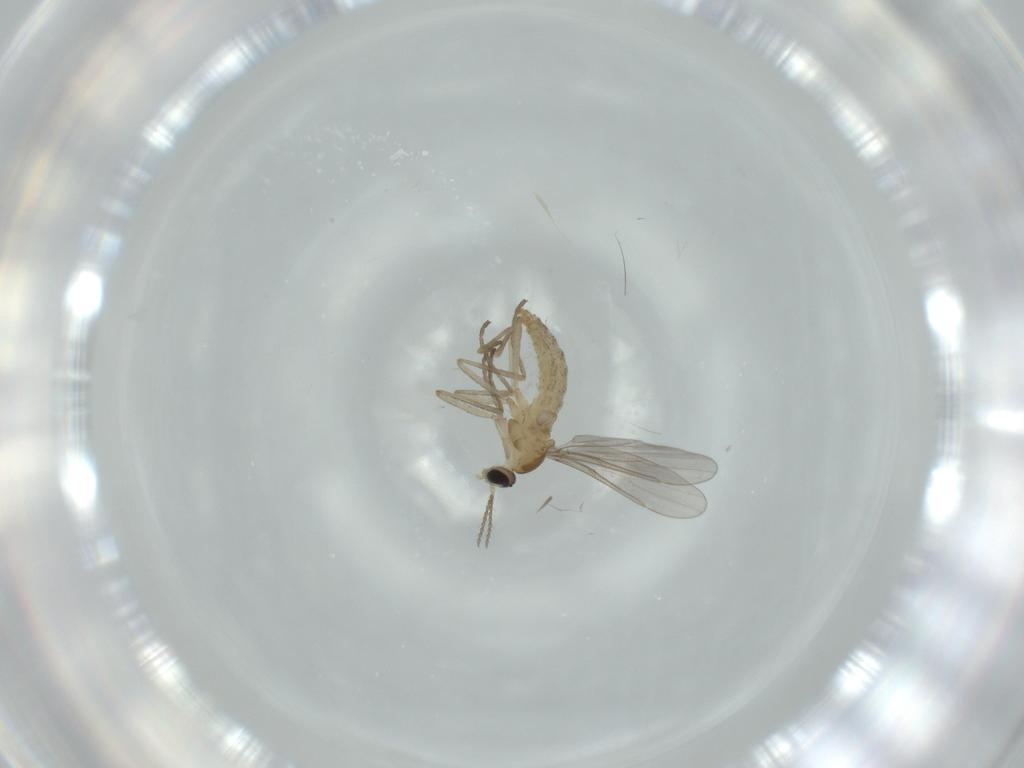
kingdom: Animalia
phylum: Arthropoda
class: Insecta
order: Diptera
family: Cecidomyiidae
